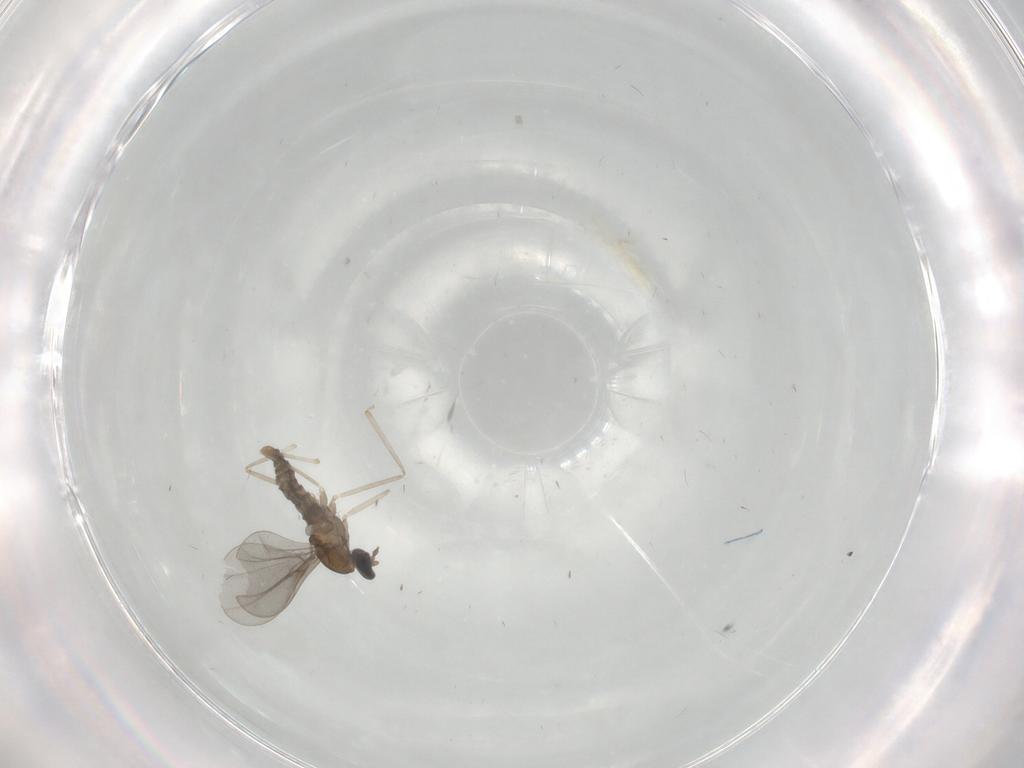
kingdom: Animalia
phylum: Arthropoda
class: Insecta
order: Diptera
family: Cecidomyiidae
